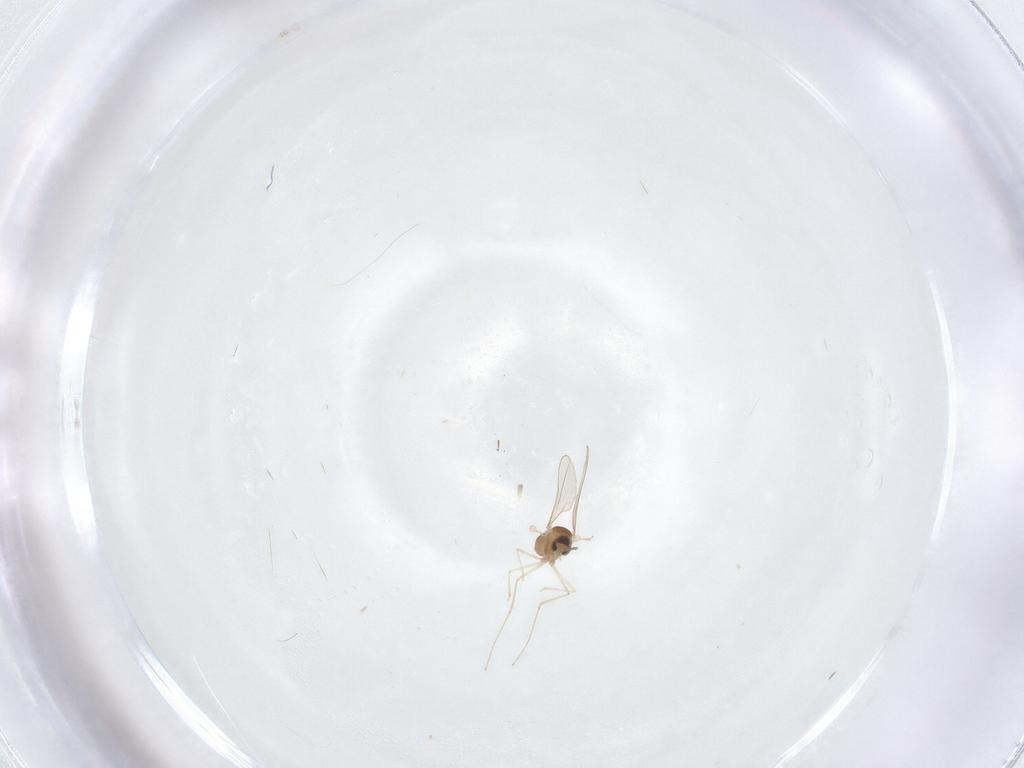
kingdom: Animalia
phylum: Arthropoda
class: Insecta
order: Diptera
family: Cecidomyiidae
